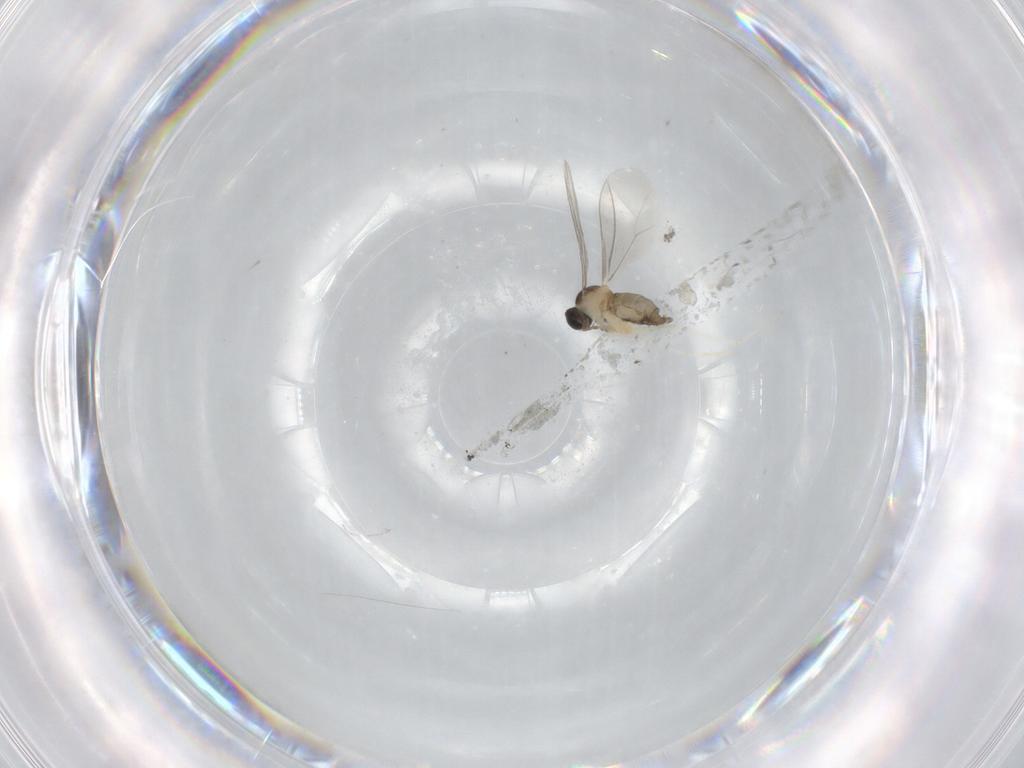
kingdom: Animalia
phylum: Arthropoda
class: Insecta
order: Diptera
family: Cecidomyiidae
